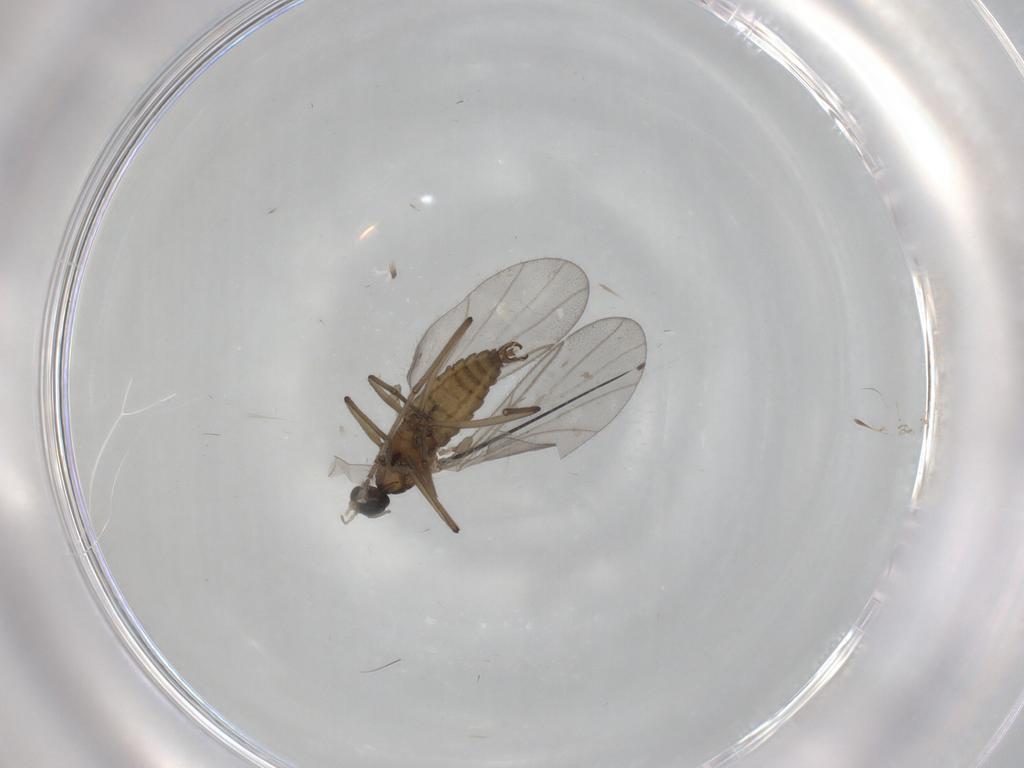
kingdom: Animalia
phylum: Arthropoda
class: Insecta
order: Diptera
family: Cecidomyiidae
